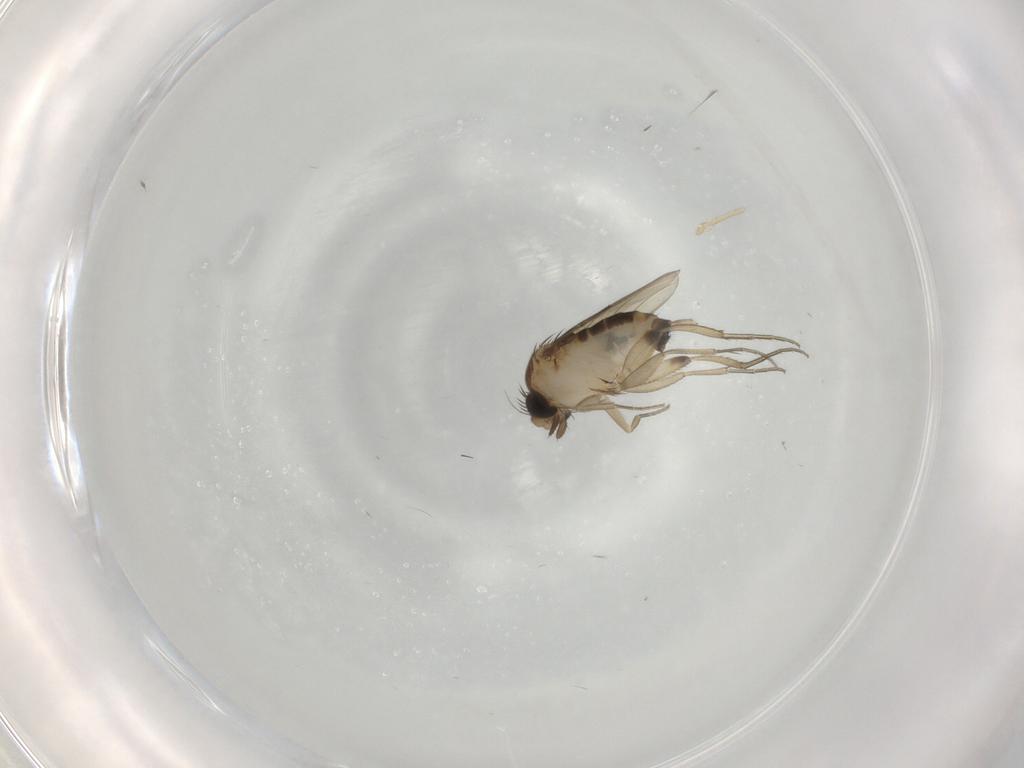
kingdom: Animalia
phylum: Arthropoda
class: Insecta
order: Diptera
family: Phoridae
